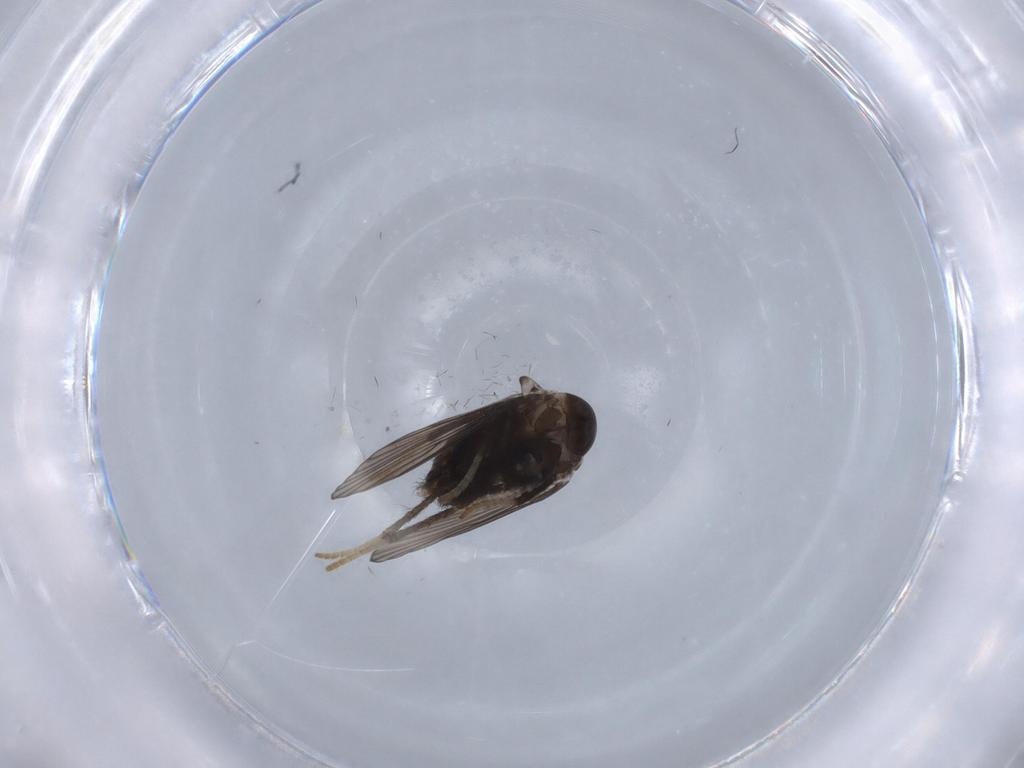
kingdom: Animalia
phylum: Arthropoda
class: Insecta
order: Diptera
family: Psychodidae
